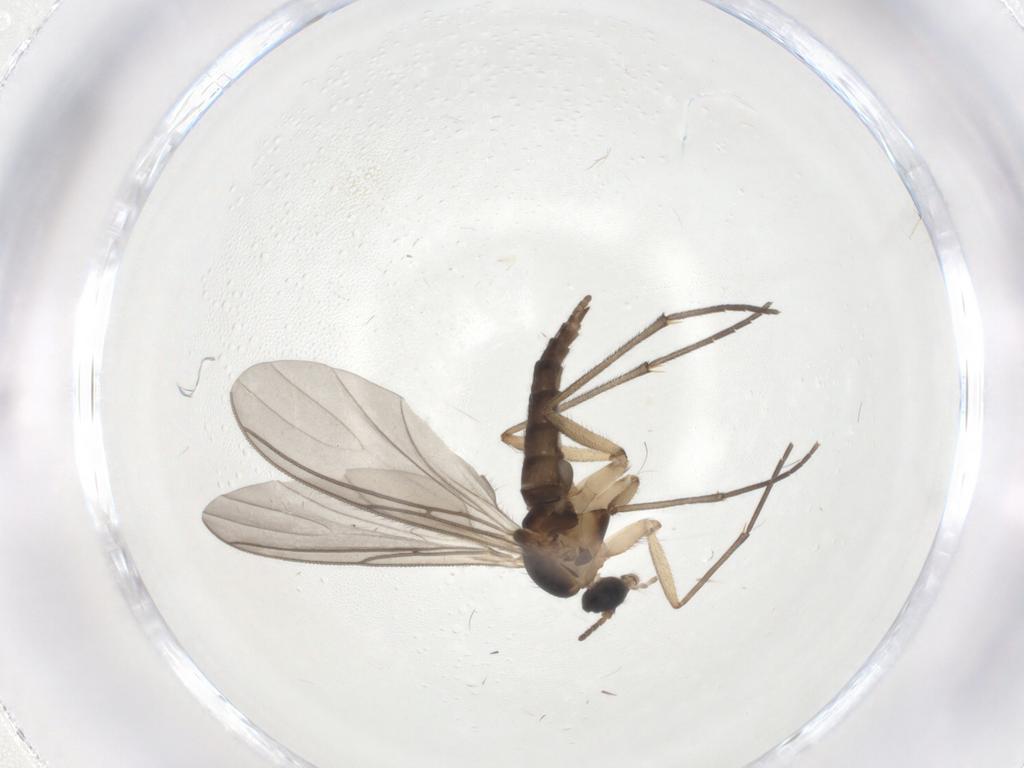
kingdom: Animalia
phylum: Arthropoda
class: Insecta
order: Diptera
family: Sciaridae
